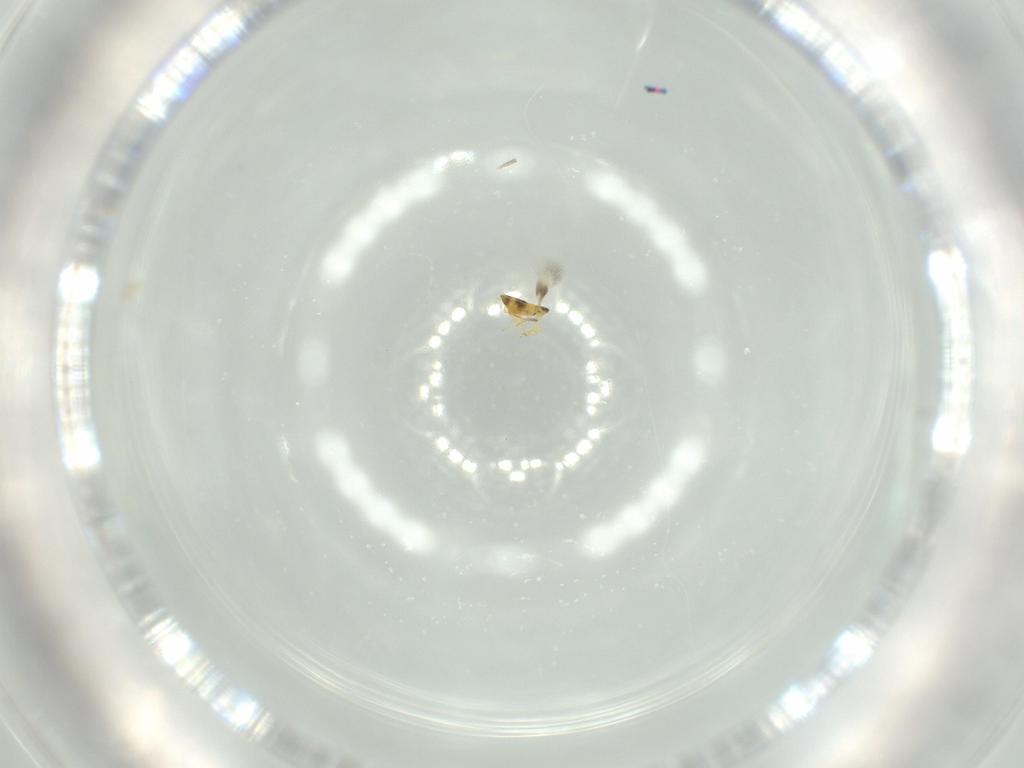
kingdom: Animalia
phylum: Arthropoda
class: Insecta
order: Hymenoptera
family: Signiphoridae
